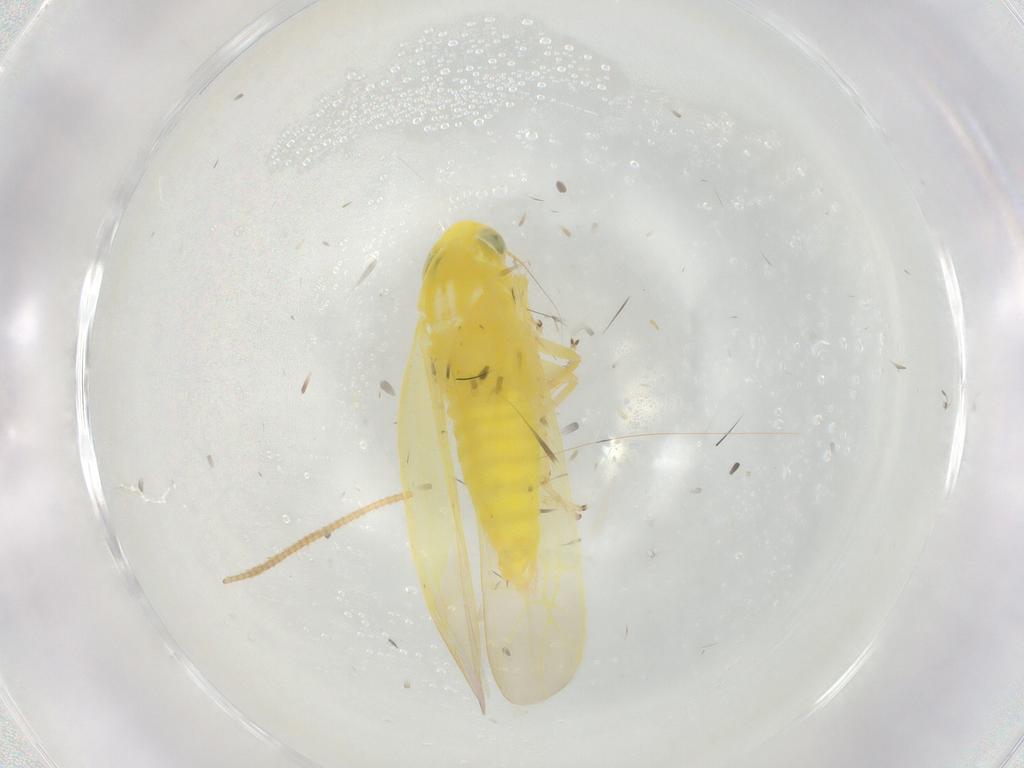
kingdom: Animalia
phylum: Arthropoda
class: Insecta
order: Hemiptera
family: Cicadellidae
